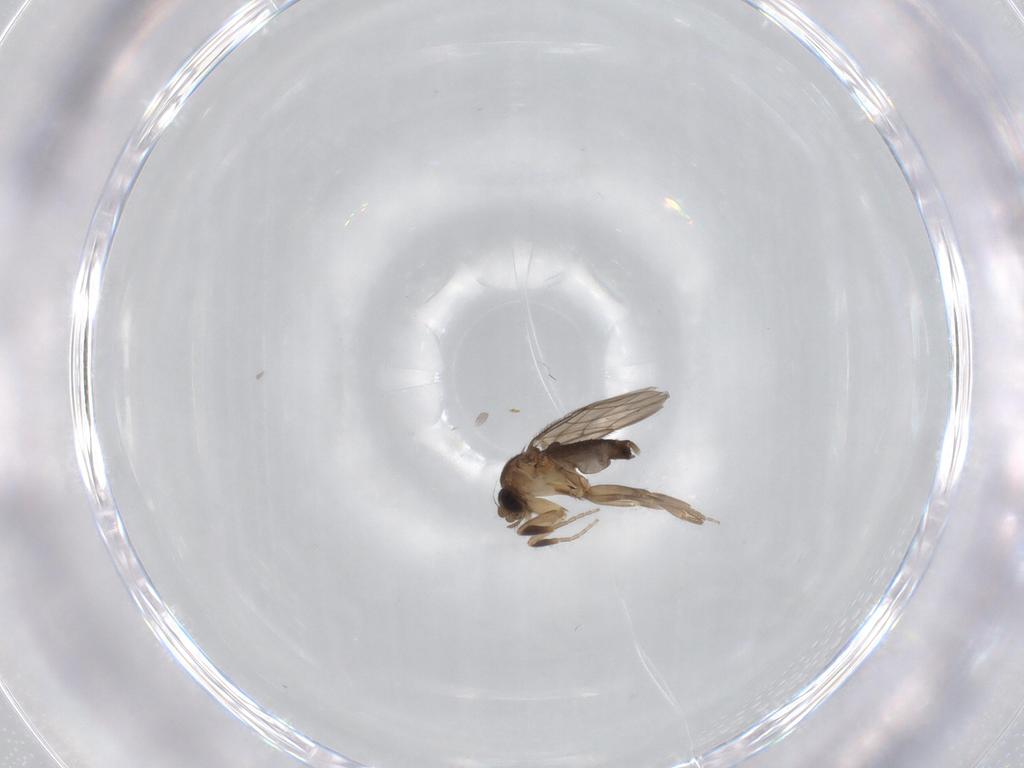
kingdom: Animalia
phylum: Arthropoda
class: Insecta
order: Diptera
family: Phoridae
